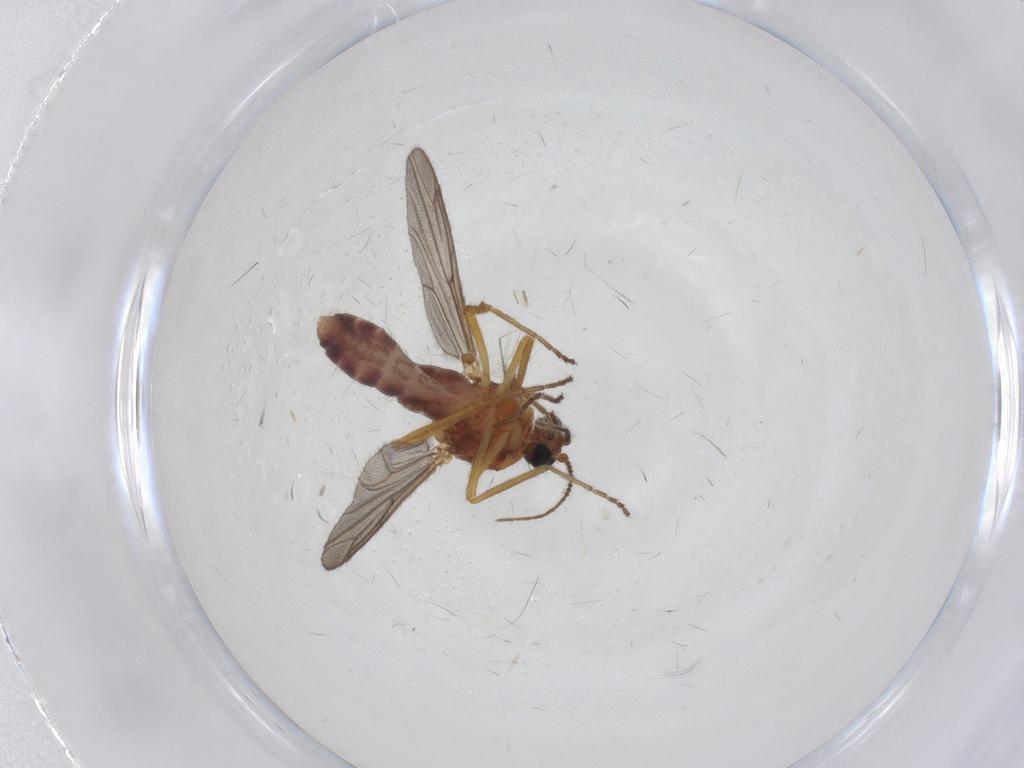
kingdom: Animalia
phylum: Arthropoda
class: Insecta
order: Diptera
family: Ceratopogonidae
